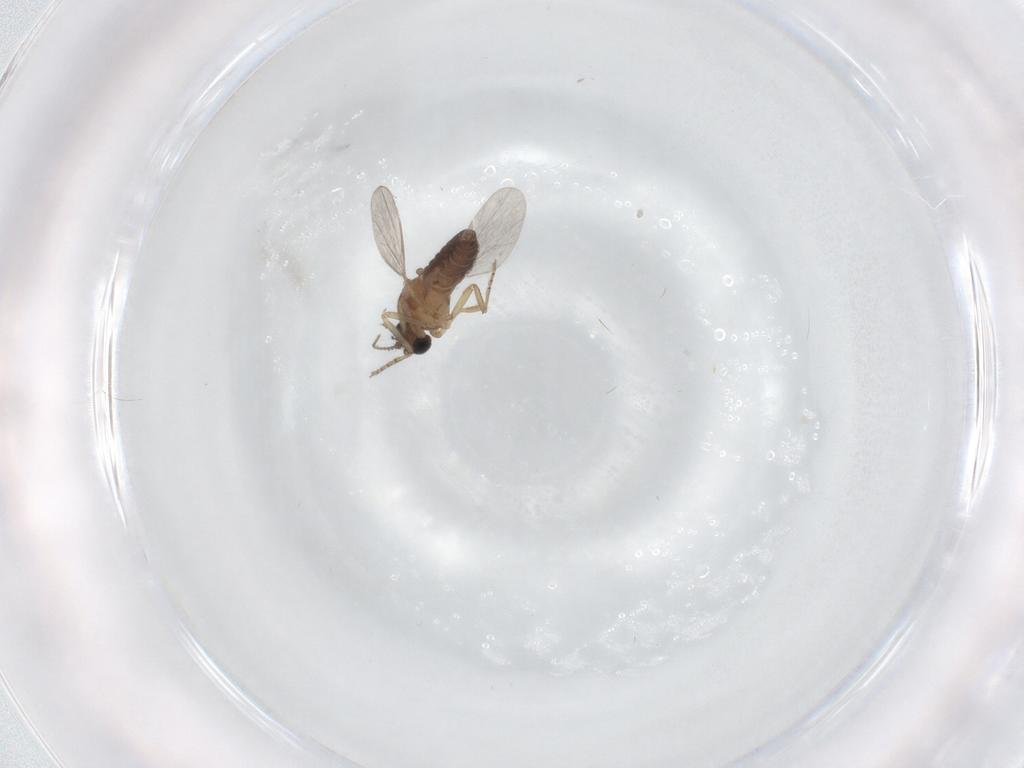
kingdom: Animalia
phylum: Arthropoda
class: Insecta
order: Diptera
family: Ceratopogonidae
